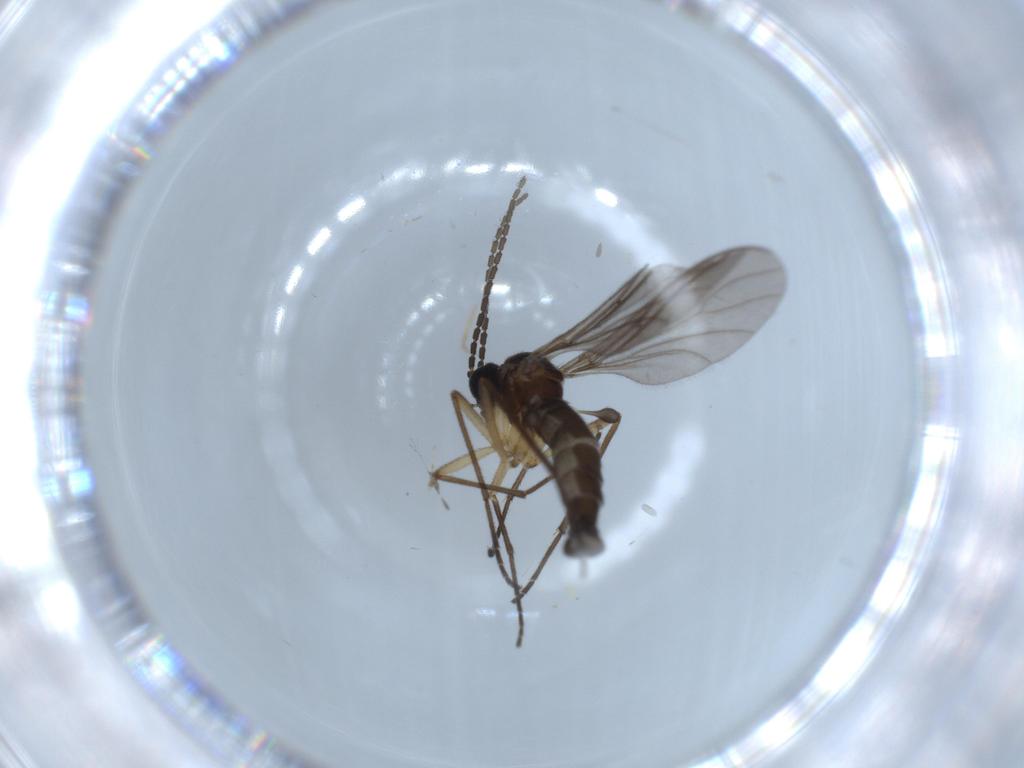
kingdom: Animalia
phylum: Arthropoda
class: Insecta
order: Diptera
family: Sciaridae
